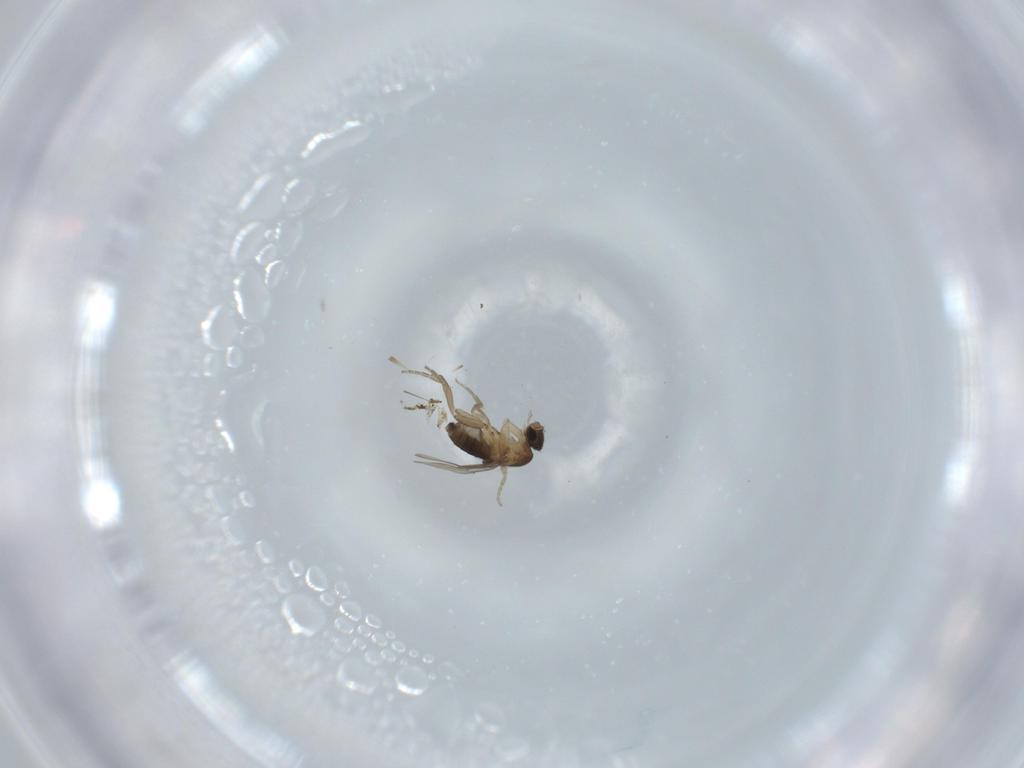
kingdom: Animalia
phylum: Arthropoda
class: Insecta
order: Diptera
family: Phoridae
